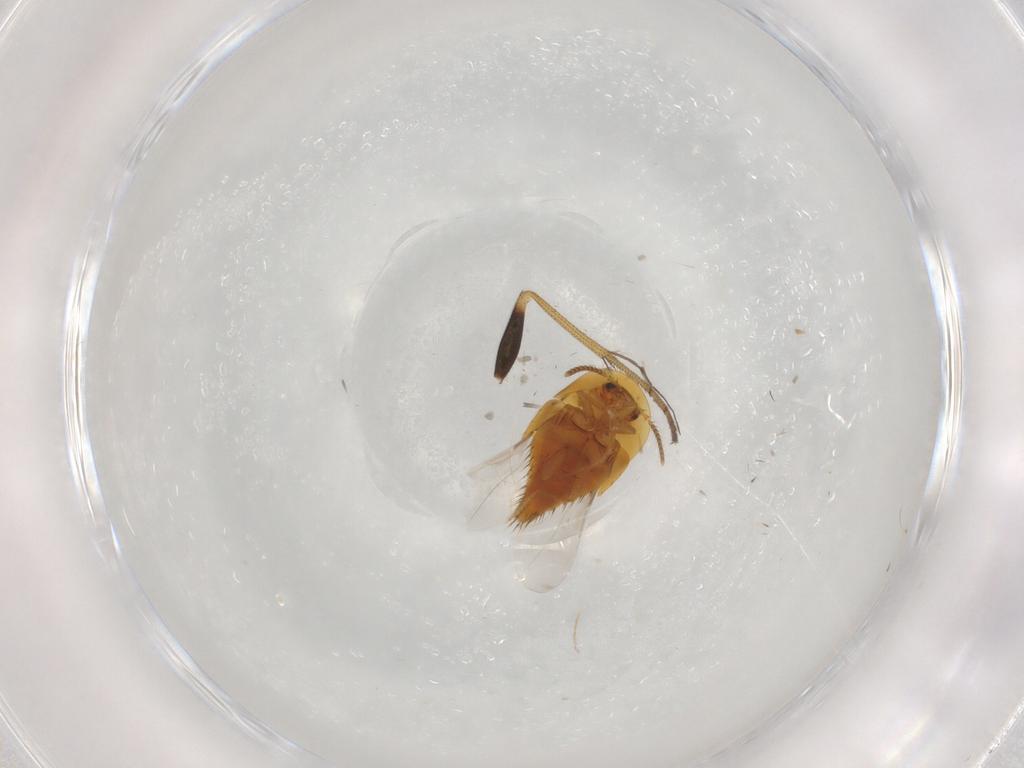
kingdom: Animalia
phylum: Arthropoda
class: Insecta
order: Coleoptera
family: Staphylinidae
